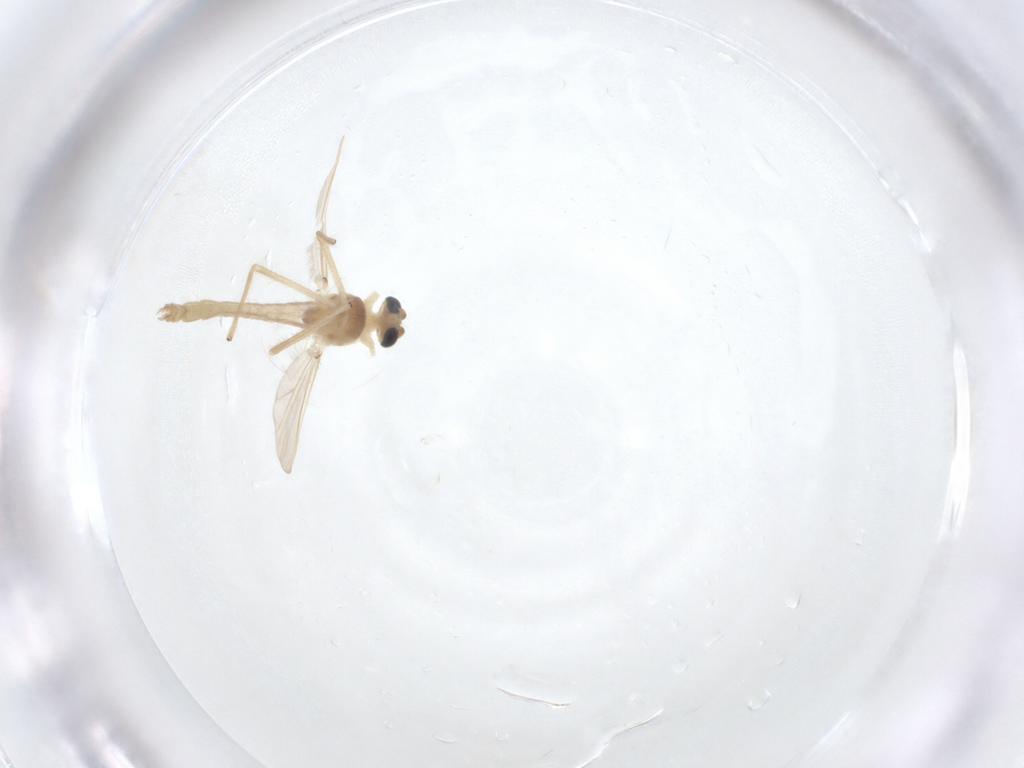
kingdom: Animalia
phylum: Arthropoda
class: Insecta
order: Diptera
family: Chironomidae
